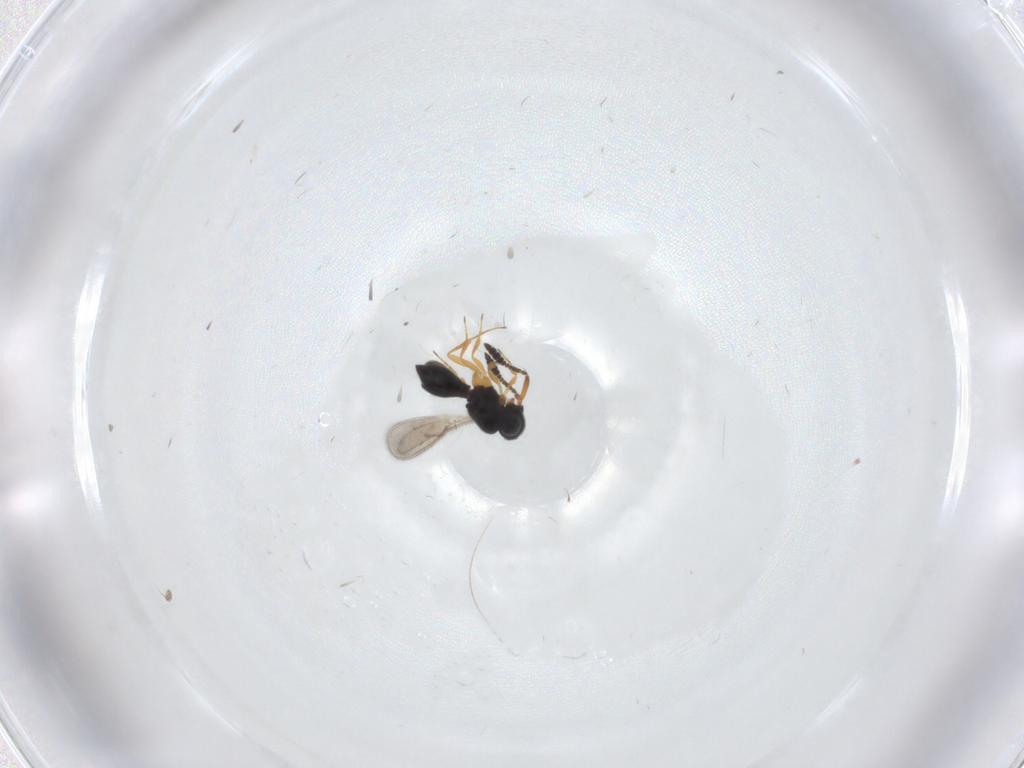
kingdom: Animalia
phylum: Arthropoda
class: Insecta
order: Hymenoptera
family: Scelionidae
